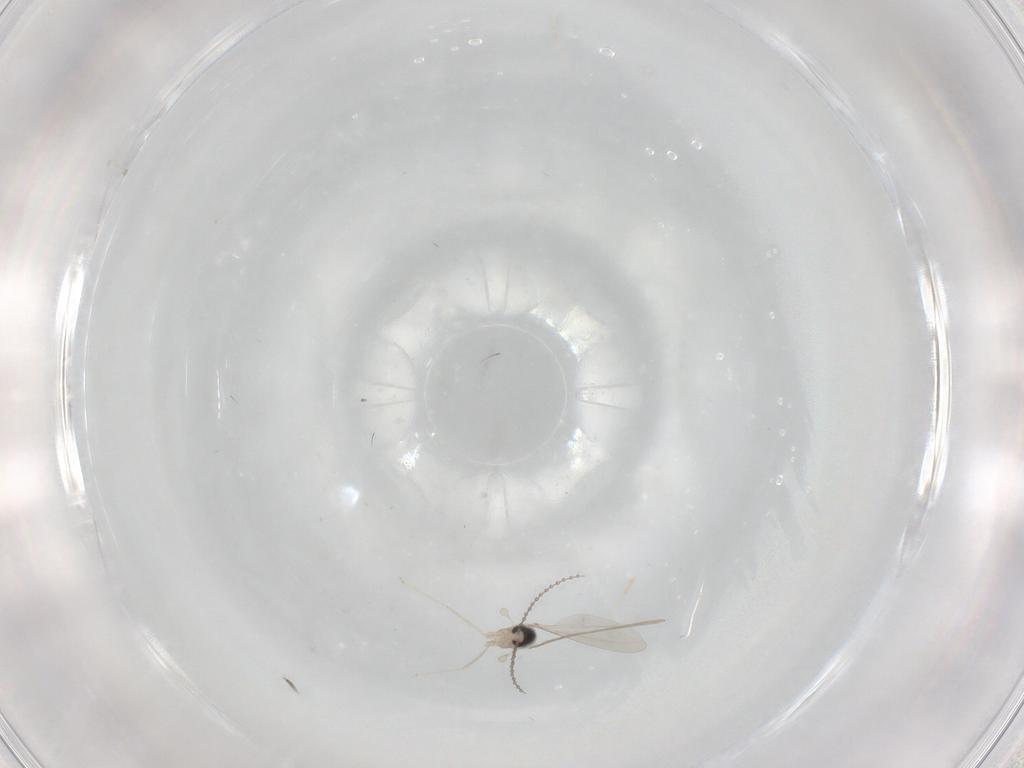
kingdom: Animalia
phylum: Arthropoda
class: Insecta
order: Diptera
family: Cecidomyiidae
